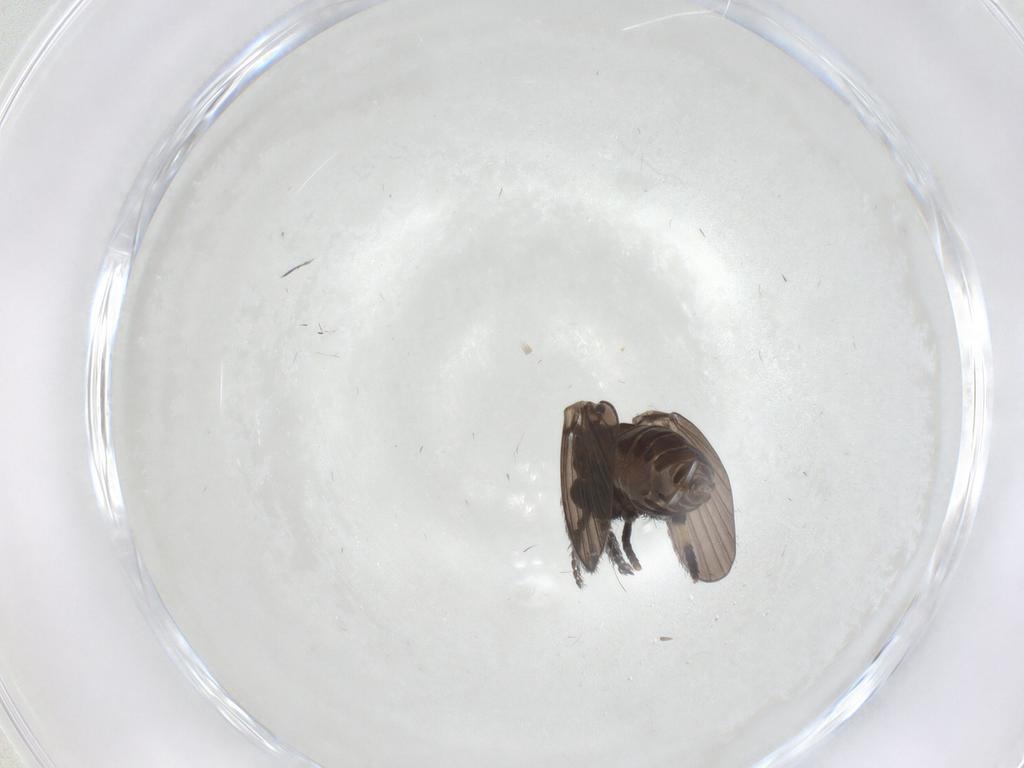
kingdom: Animalia
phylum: Arthropoda
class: Insecta
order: Diptera
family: Psychodidae
